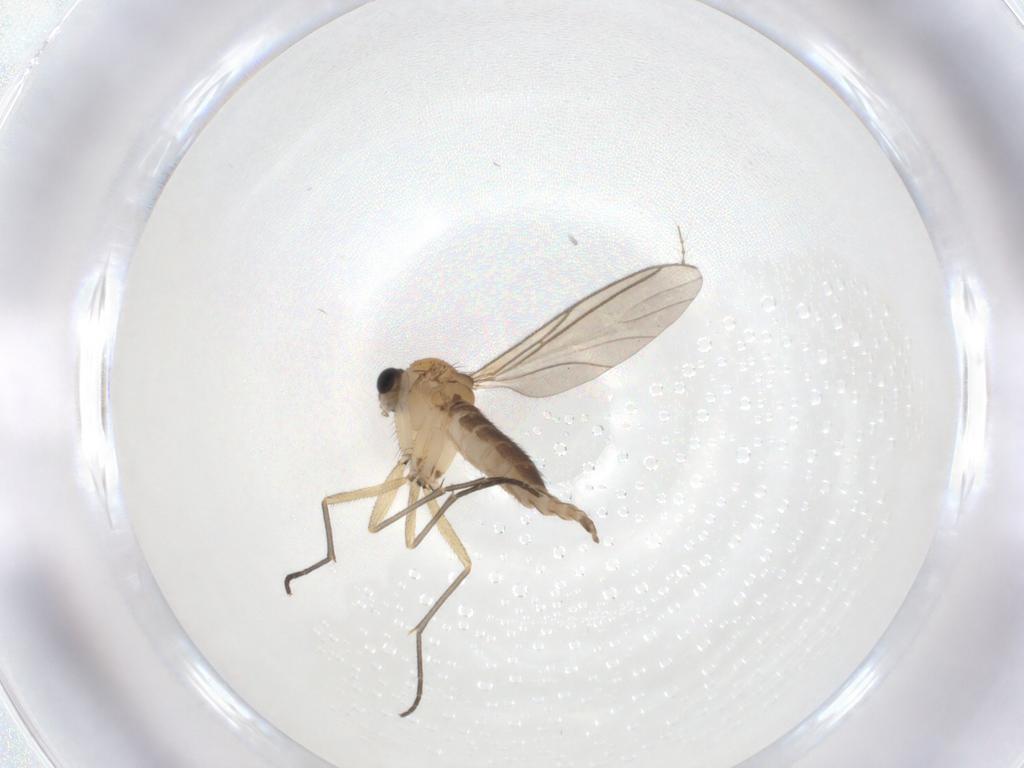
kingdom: Animalia
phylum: Arthropoda
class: Insecta
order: Diptera
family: Sciaridae
